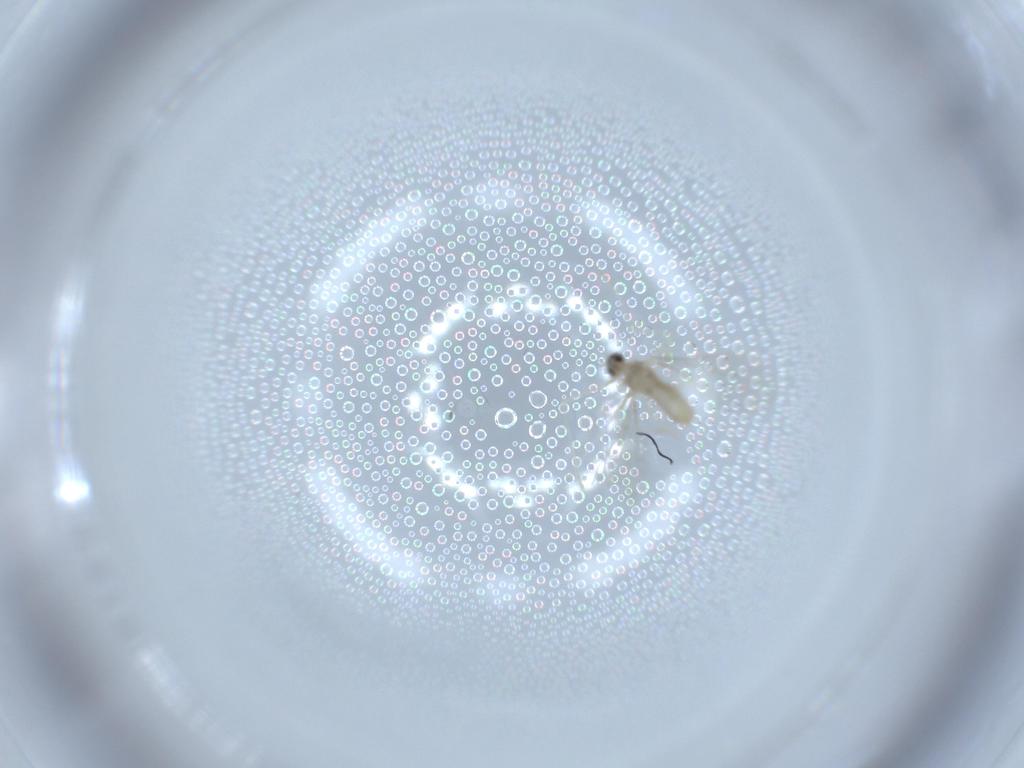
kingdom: Animalia
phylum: Arthropoda
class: Insecta
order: Diptera
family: Cecidomyiidae
